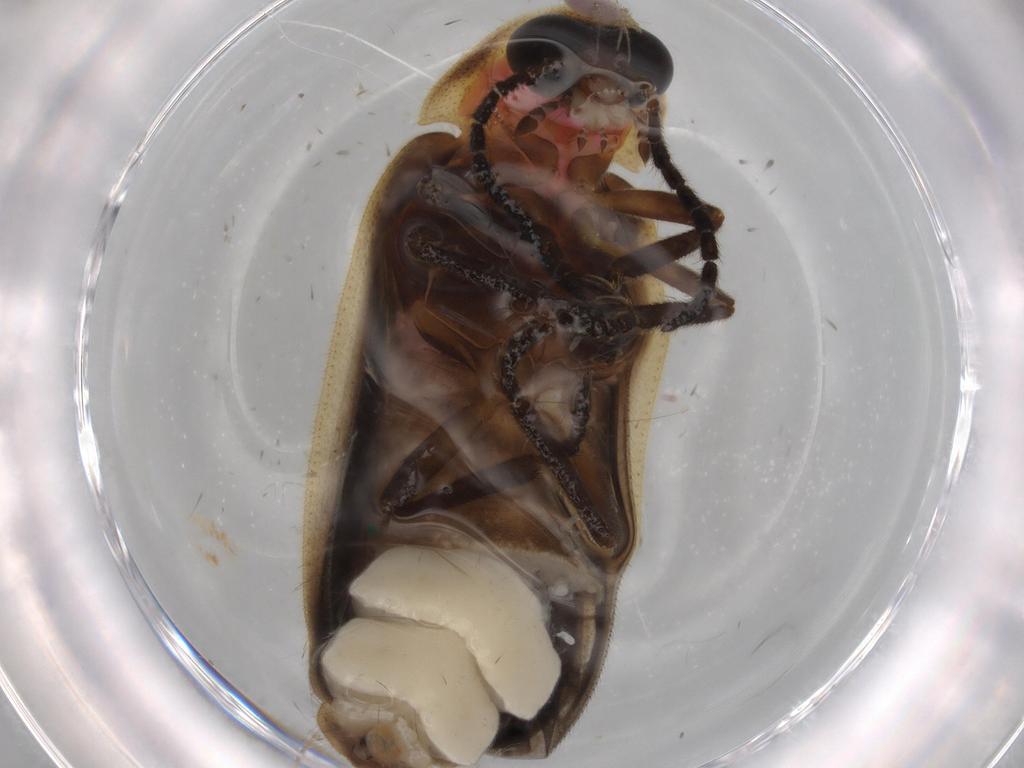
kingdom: Animalia
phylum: Arthropoda
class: Insecta
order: Coleoptera
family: Lampyridae
